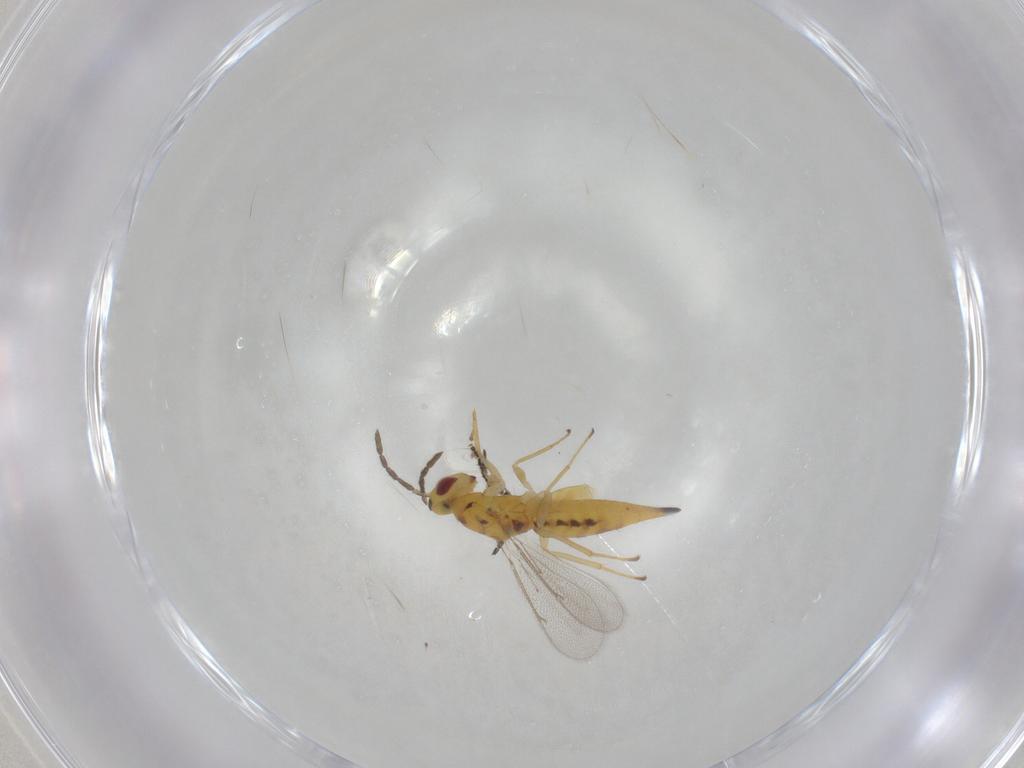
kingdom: Animalia
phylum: Arthropoda
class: Insecta
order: Hymenoptera
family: Eulophidae
